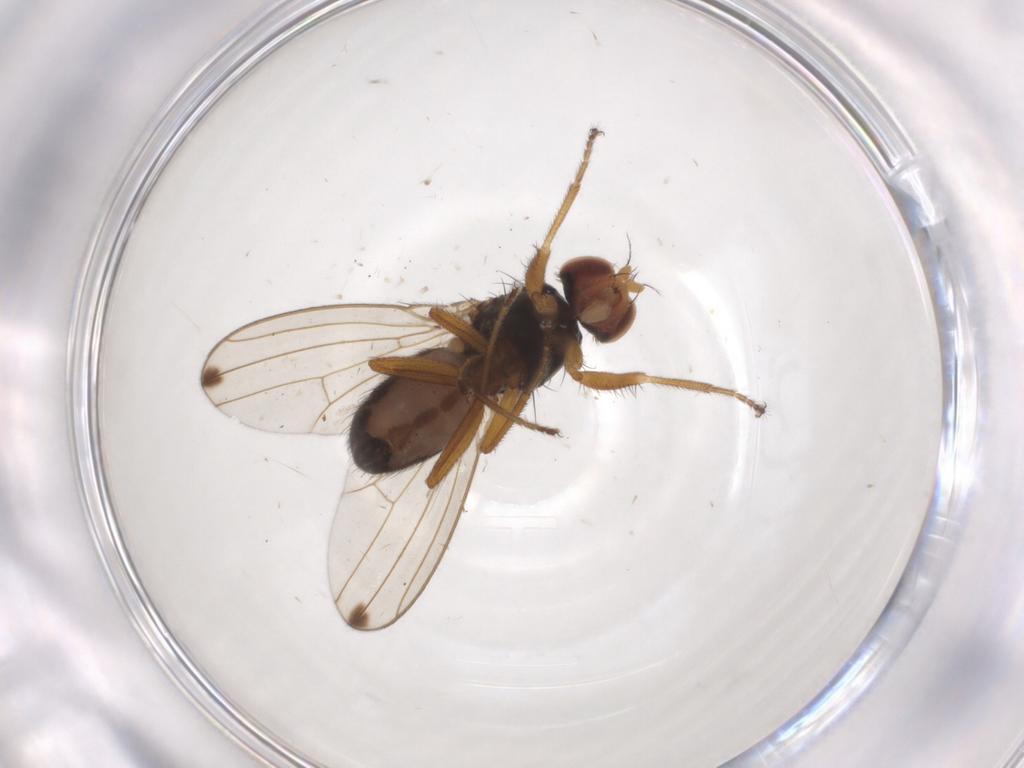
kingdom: Animalia
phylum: Arthropoda
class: Insecta
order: Diptera
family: Drosophilidae
